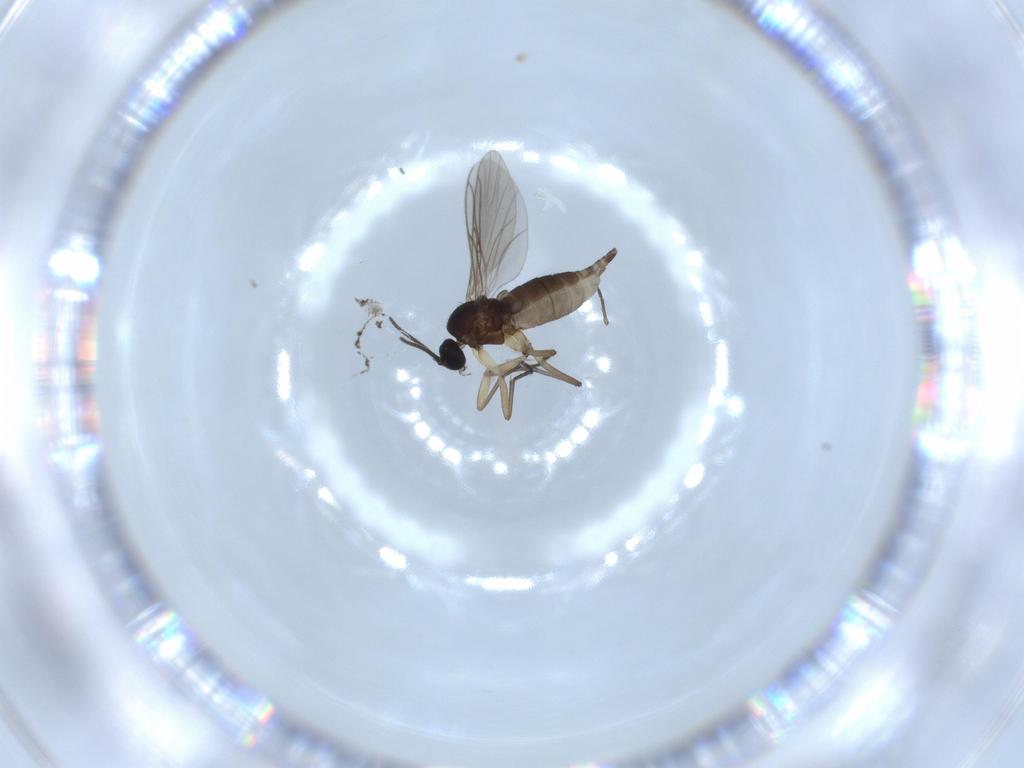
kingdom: Animalia
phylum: Arthropoda
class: Insecta
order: Diptera
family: Sciaridae
